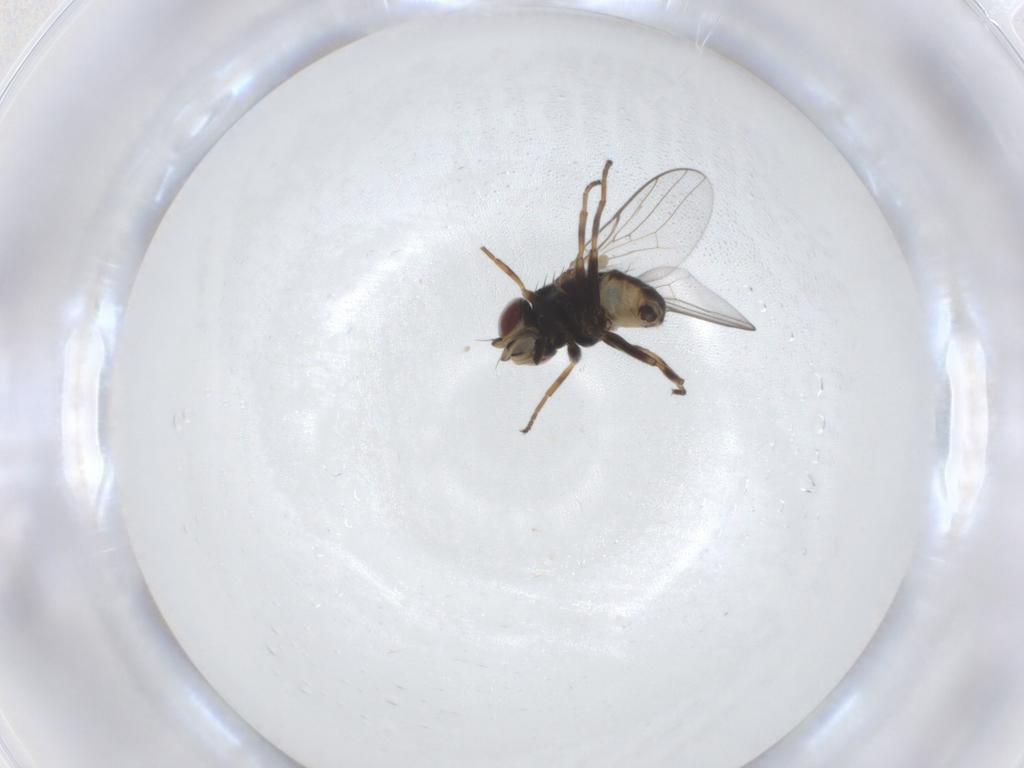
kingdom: Animalia
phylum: Arthropoda
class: Insecta
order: Diptera
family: Chloropidae
